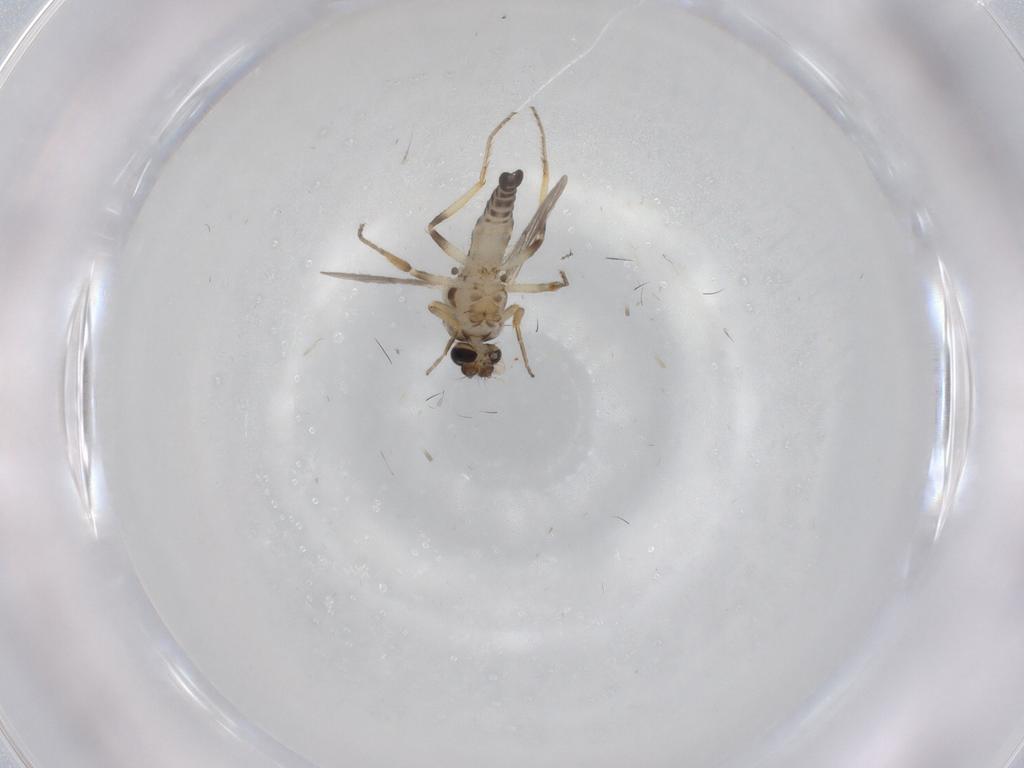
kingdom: Animalia
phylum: Arthropoda
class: Insecta
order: Diptera
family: Ceratopogonidae
